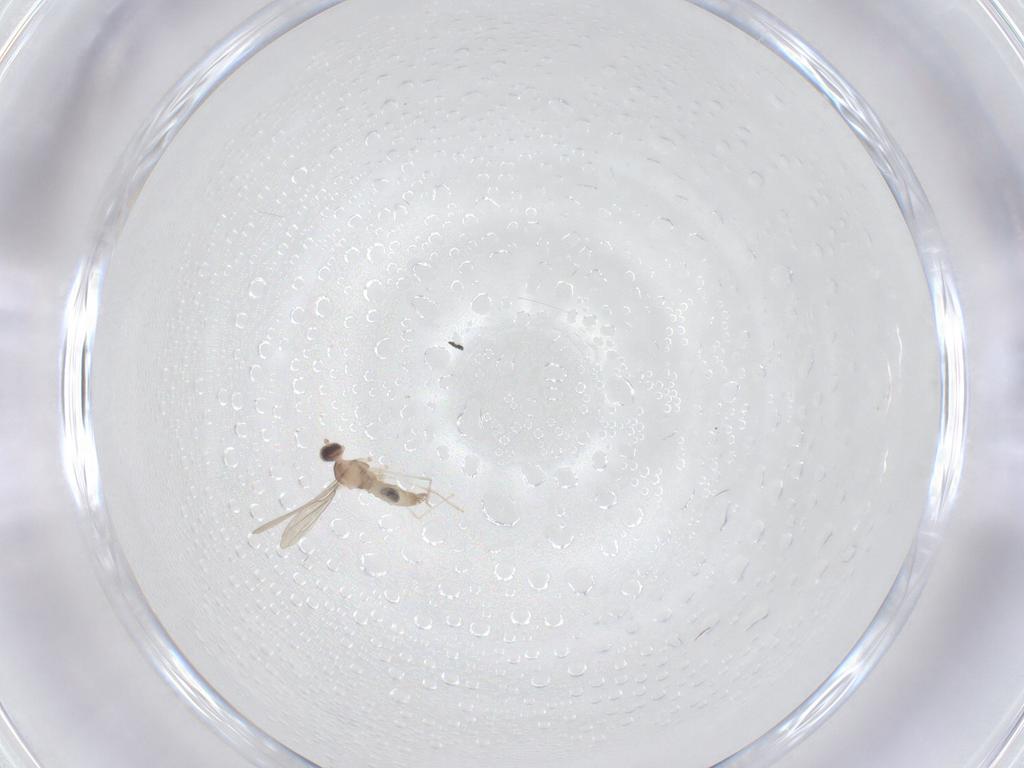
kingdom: Animalia
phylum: Arthropoda
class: Insecta
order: Diptera
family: Cecidomyiidae
